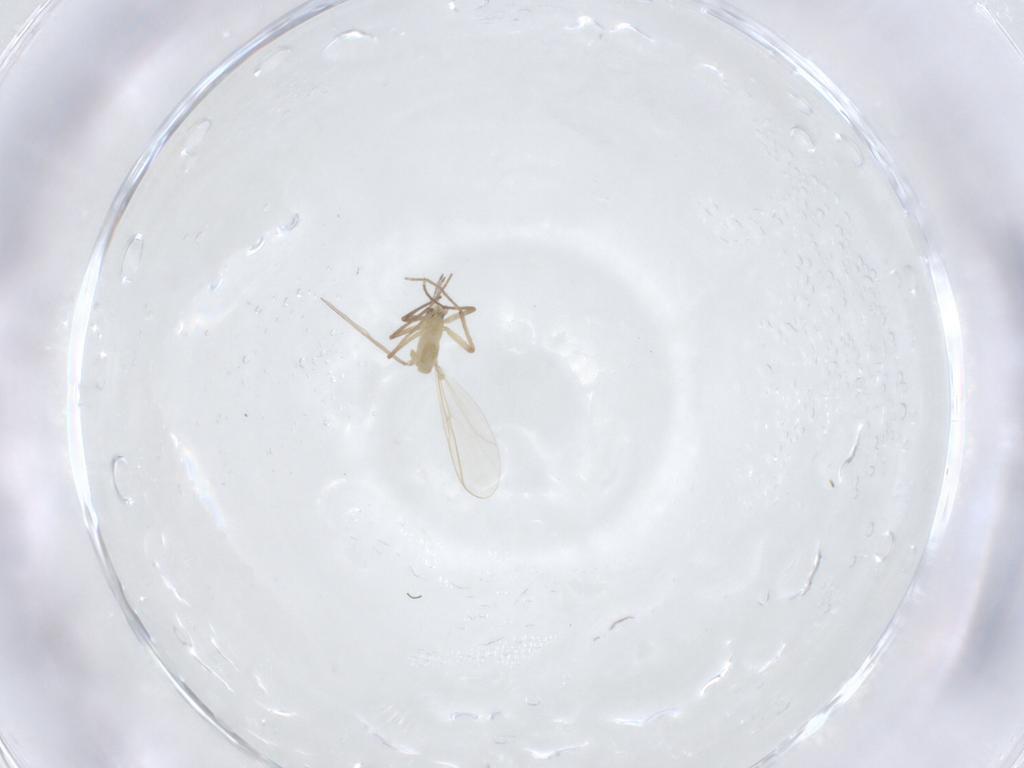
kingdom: Animalia
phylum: Arthropoda
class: Insecta
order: Diptera
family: Chironomidae
